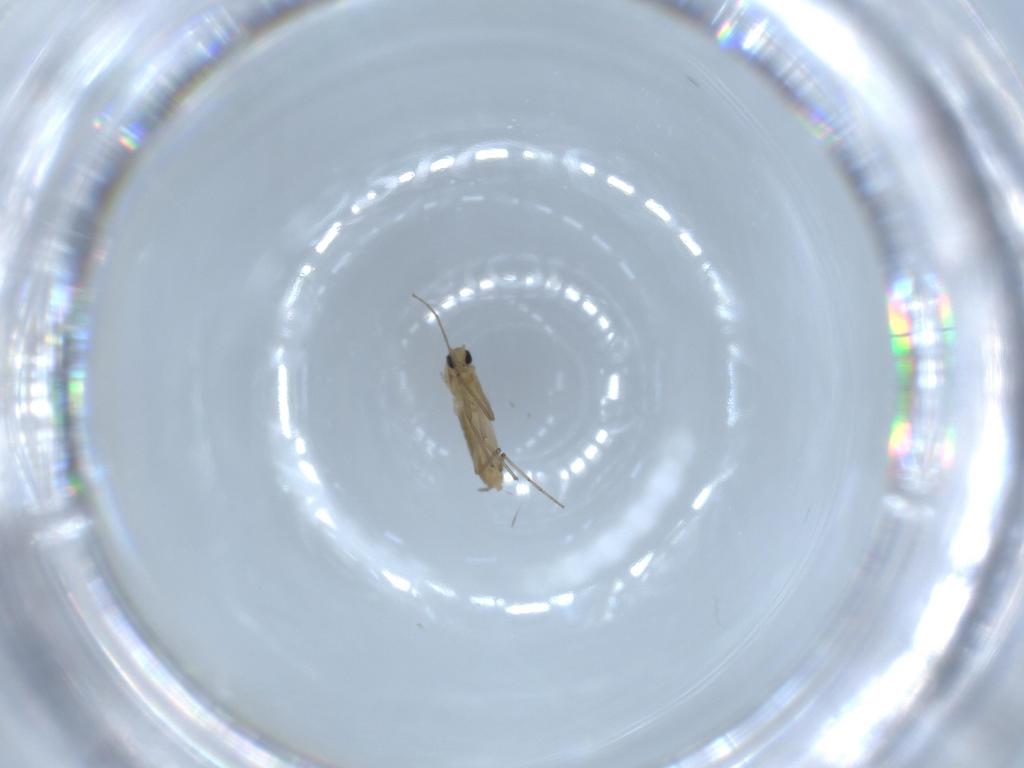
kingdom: Animalia
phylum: Arthropoda
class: Insecta
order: Diptera
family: Chironomidae
